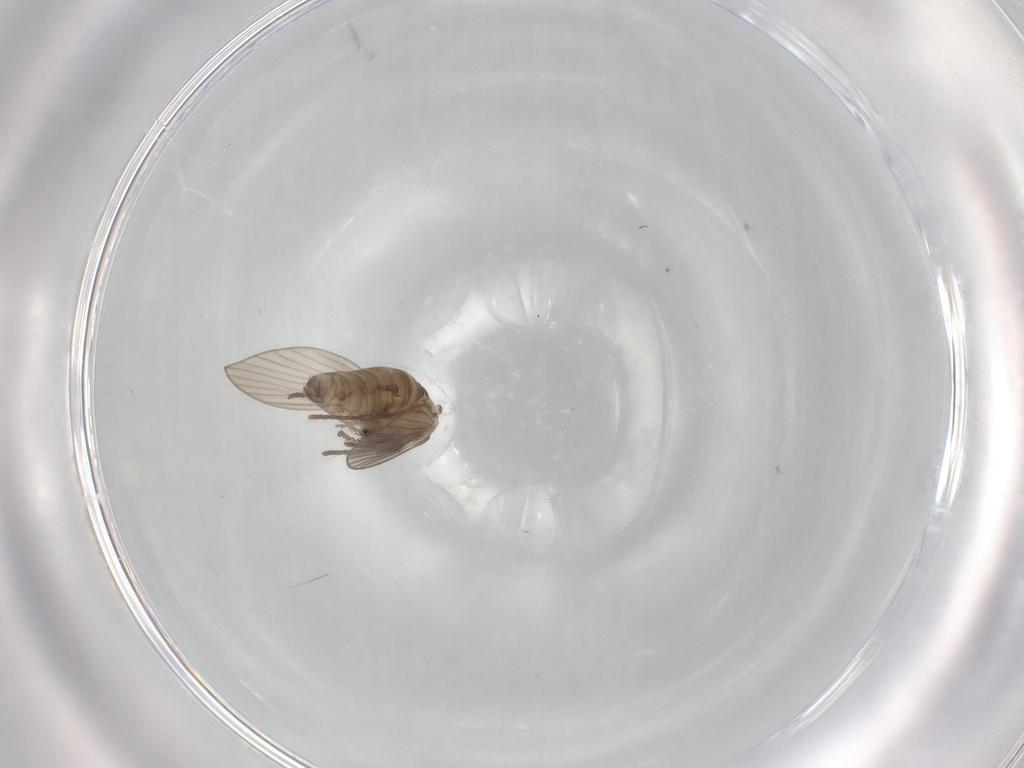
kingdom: Animalia
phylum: Arthropoda
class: Insecta
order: Diptera
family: Psychodidae
